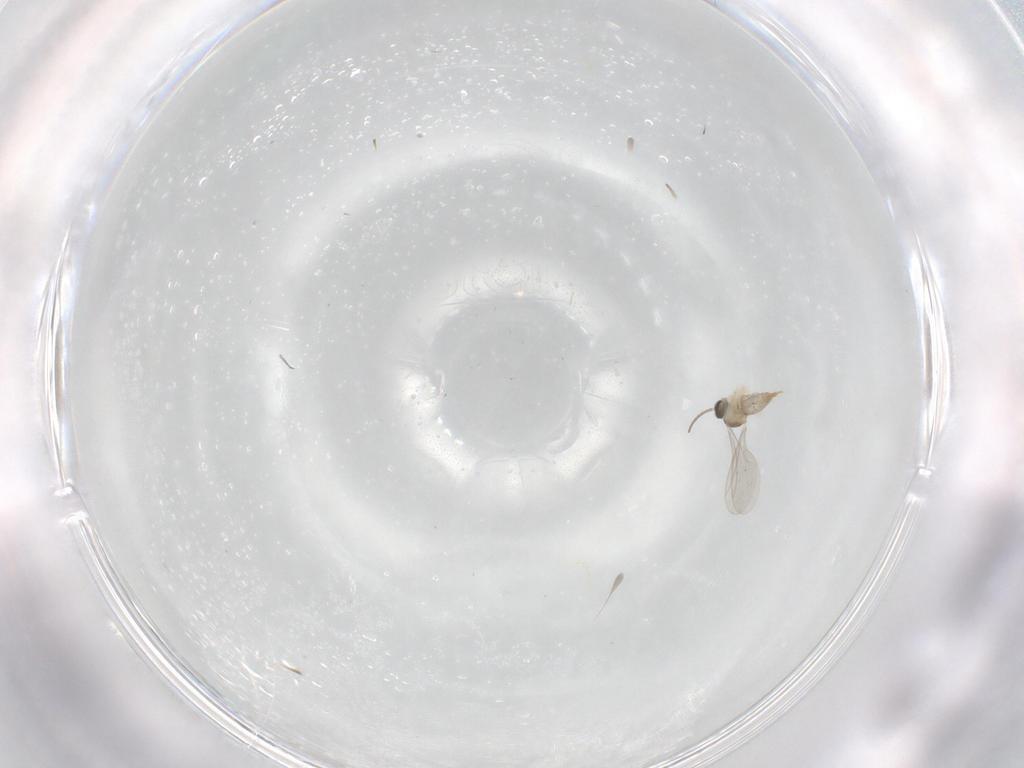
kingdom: Animalia
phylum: Arthropoda
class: Insecta
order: Diptera
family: Cecidomyiidae
